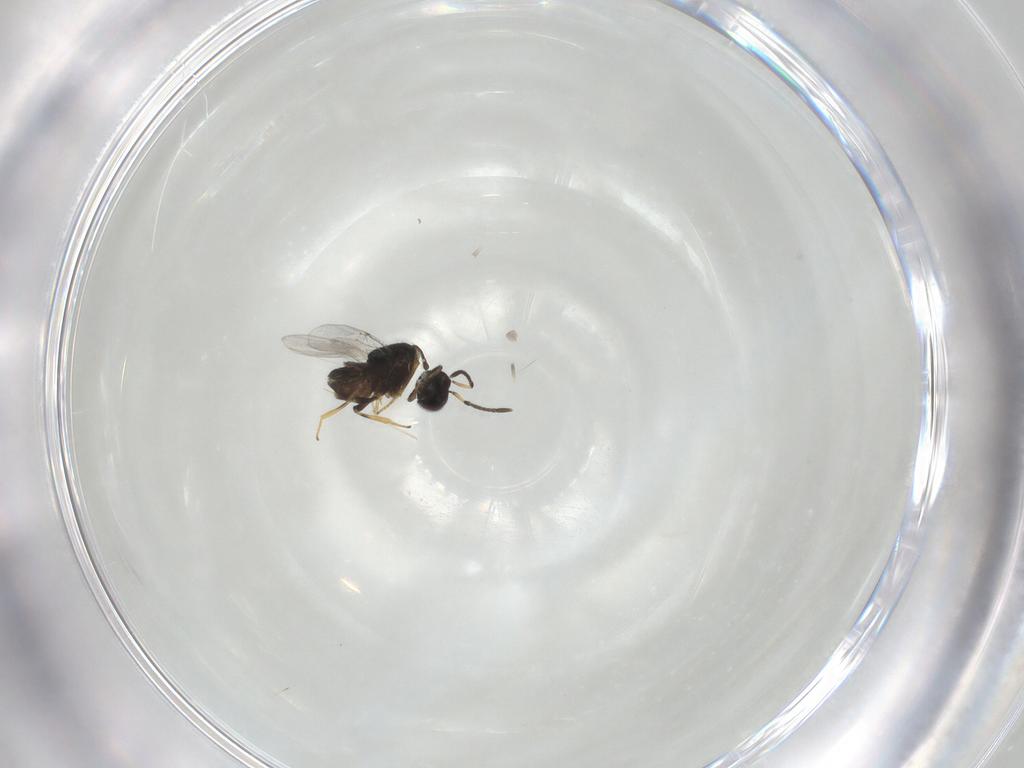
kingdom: Animalia
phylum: Arthropoda
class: Insecta
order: Hymenoptera
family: Encyrtidae
